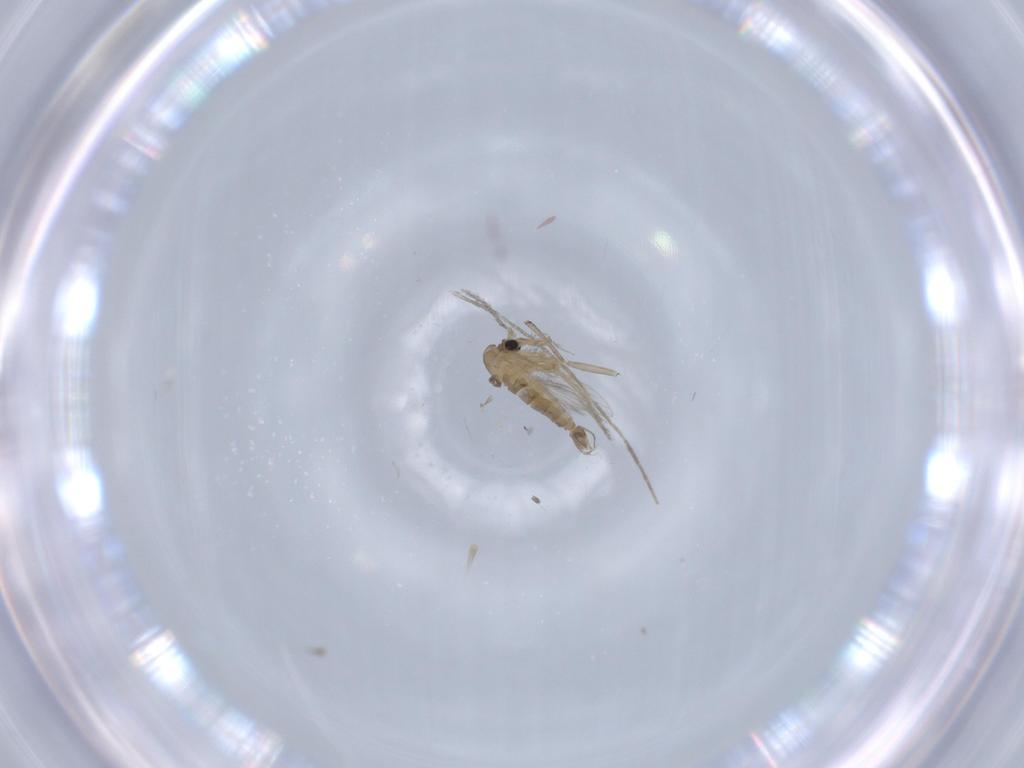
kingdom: Animalia
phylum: Arthropoda
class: Insecta
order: Diptera
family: Psychodidae
